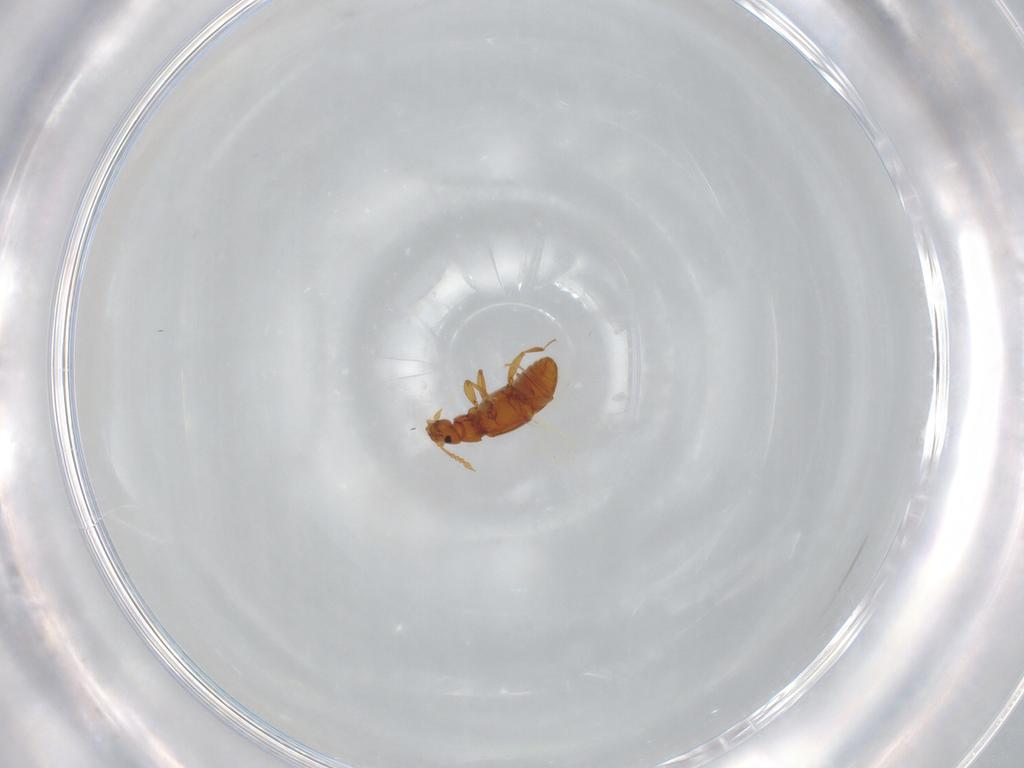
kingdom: Animalia
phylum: Arthropoda
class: Insecta
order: Coleoptera
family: Staphylinidae
